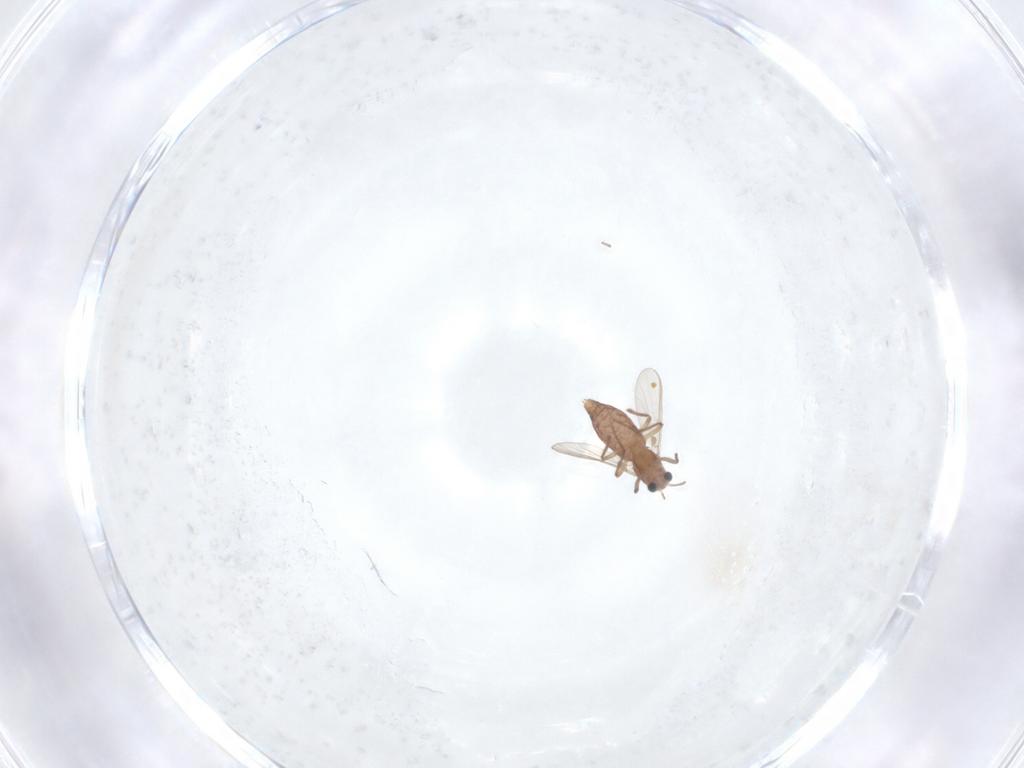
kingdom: Animalia
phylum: Arthropoda
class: Insecta
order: Diptera
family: Chironomidae
